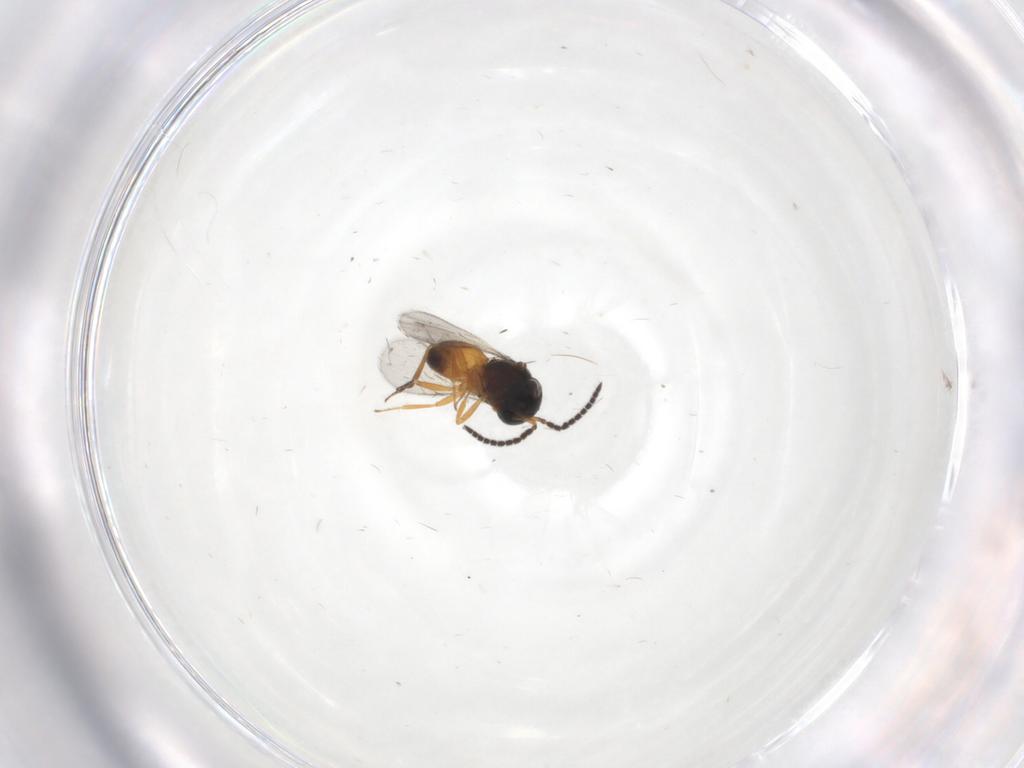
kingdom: Animalia
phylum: Arthropoda
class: Insecta
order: Hymenoptera
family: Scelionidae
